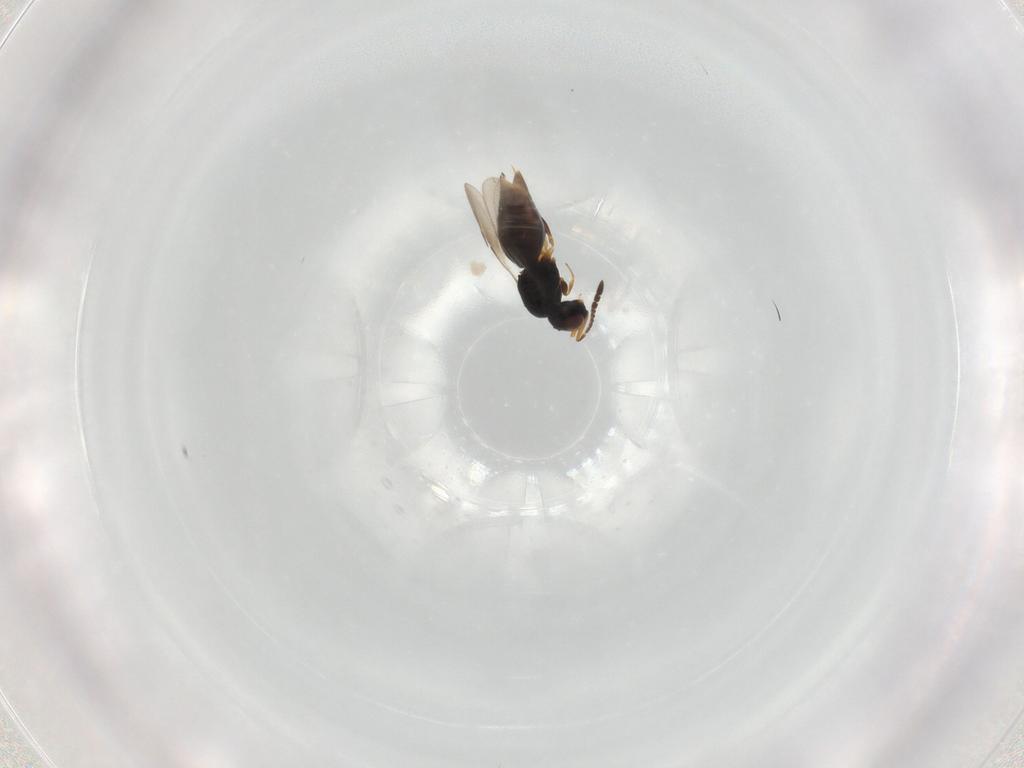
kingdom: Animalia
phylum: Arthropoda
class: Insecta
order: Hymenoptera
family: Scelionidae
